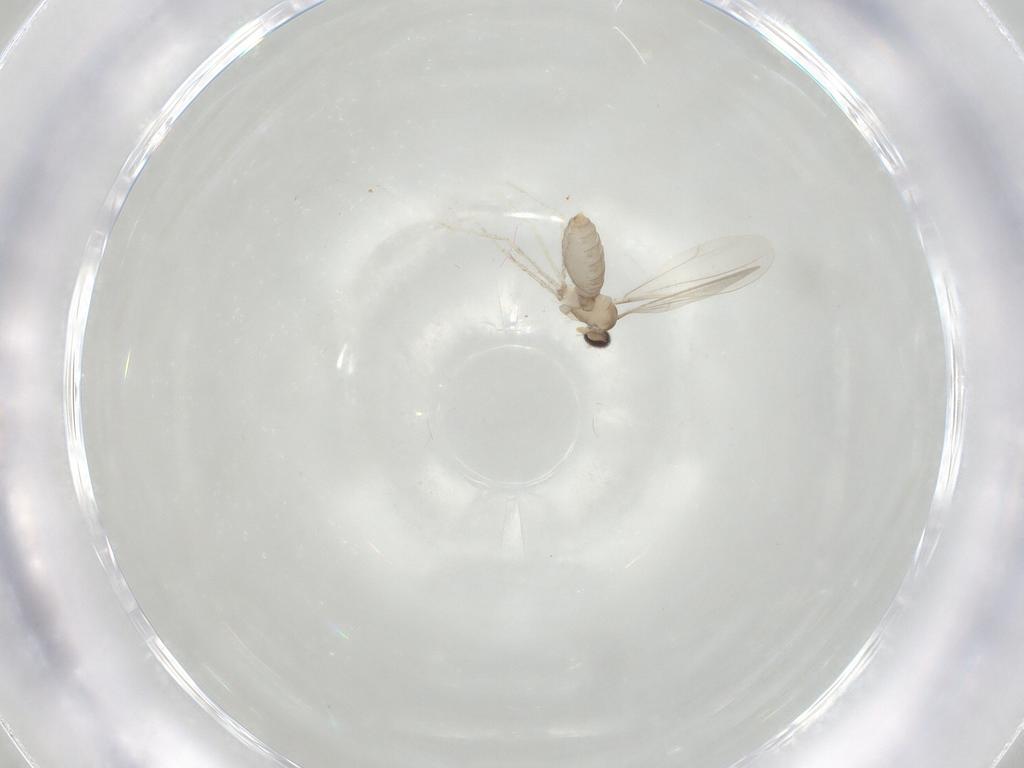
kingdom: Animalia
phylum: Arthropoda
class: Insecta
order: Diptera
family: Cecidomyiidae
